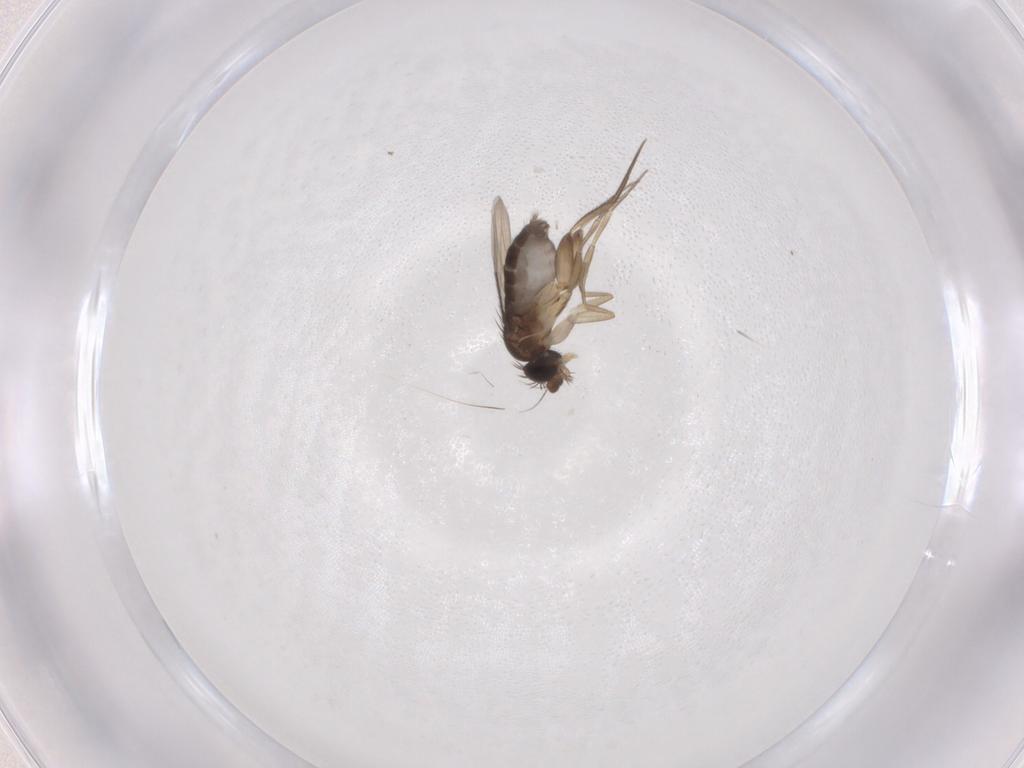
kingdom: Animalia
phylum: Arthropoda
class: Insecta
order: Diptera
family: Phoridae
